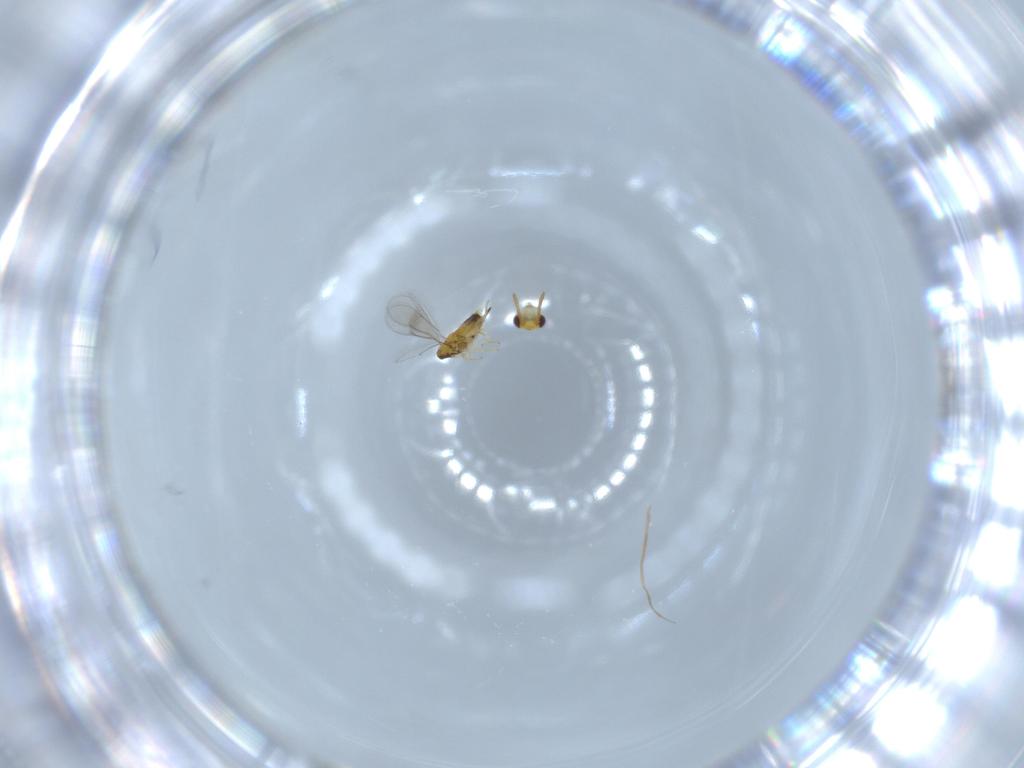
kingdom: Animalia
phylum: Arthropoda
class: Insecta
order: Hymenoptera
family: Aphelinidae
